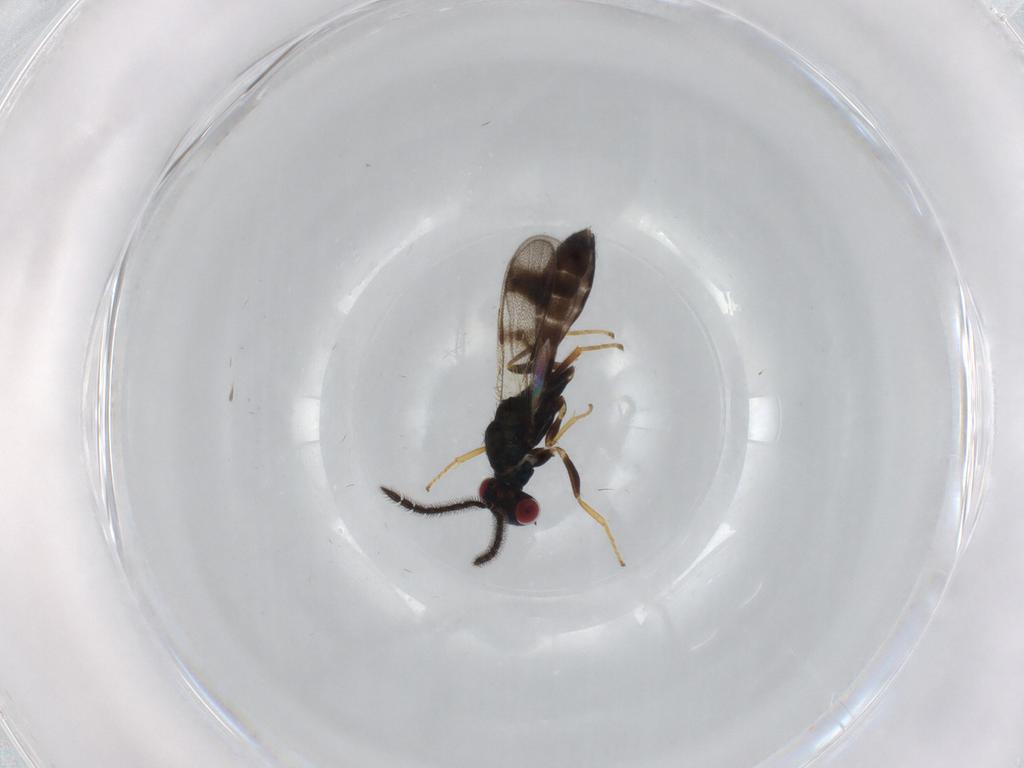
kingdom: Animalia
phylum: Arthropoda
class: Insecta
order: Hymenoptera
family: Pteromalidae
